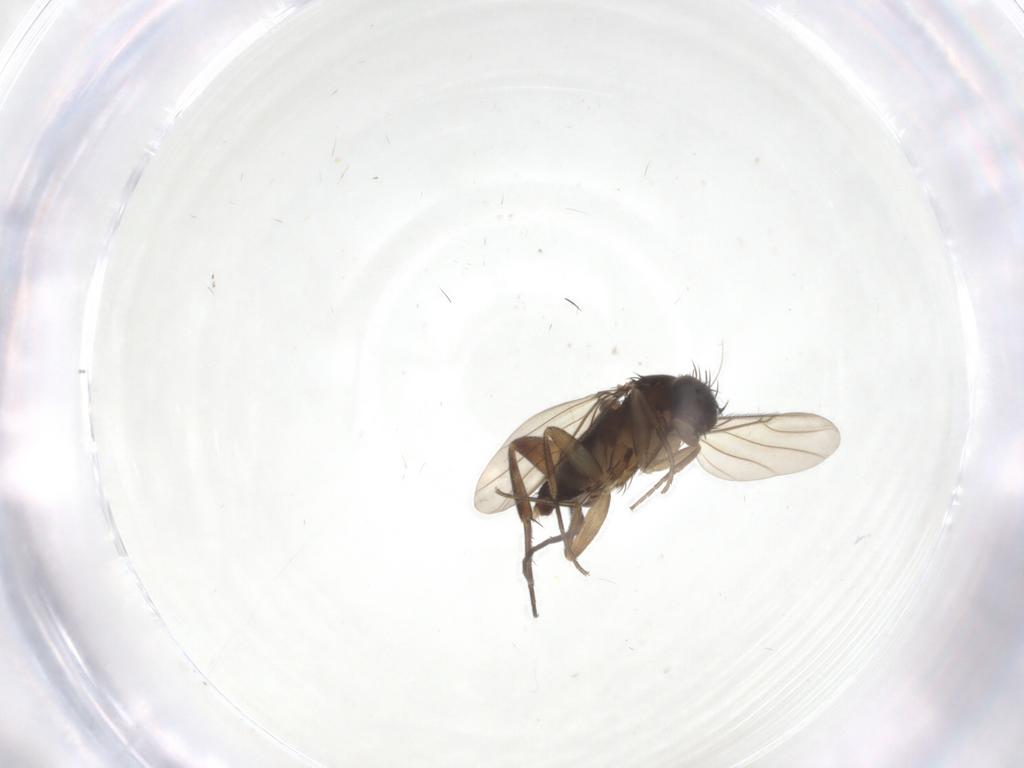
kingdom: Animalia
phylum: Arthropoda
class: Insecta
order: Diptera
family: Phoridae
